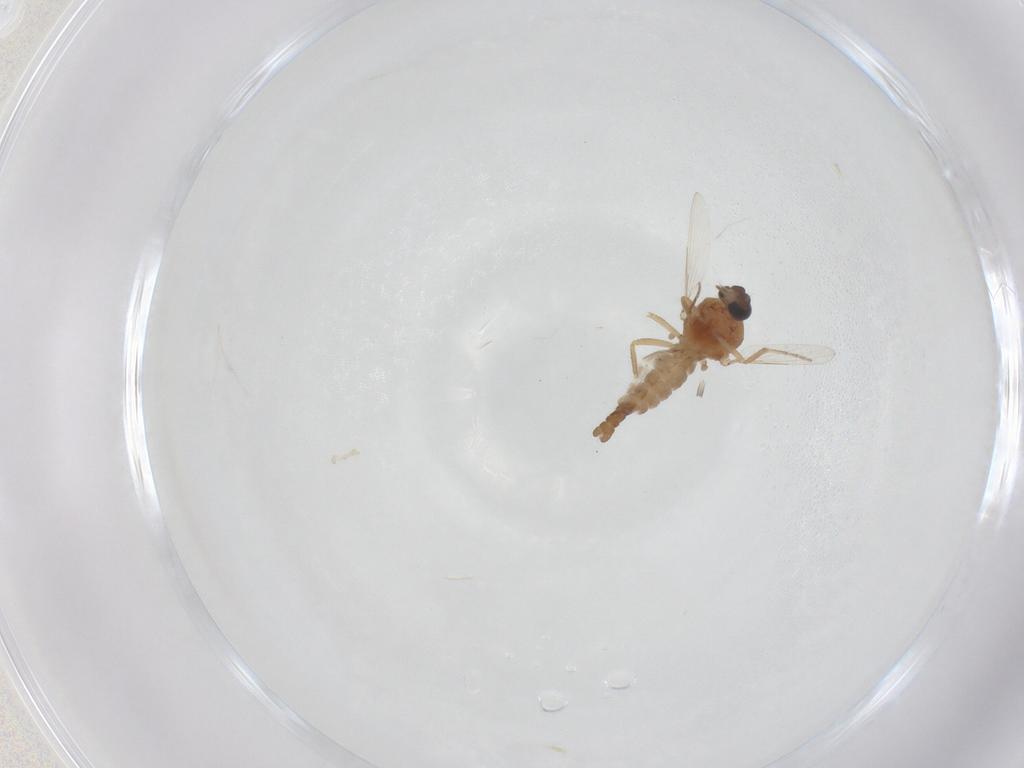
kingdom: Animalia
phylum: Arthropoda
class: Insecta
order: Diptera
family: Ceratopogonidae
